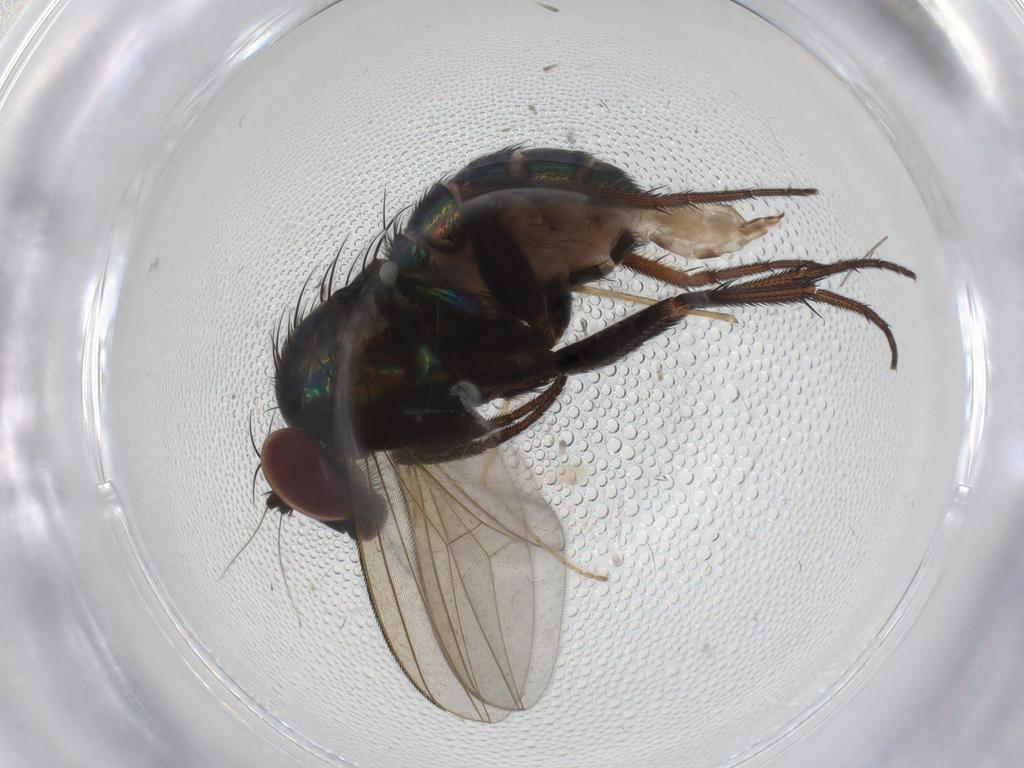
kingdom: Animalia
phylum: Arthropoda
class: Insecta
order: Diptera
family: Dolichopodidae
